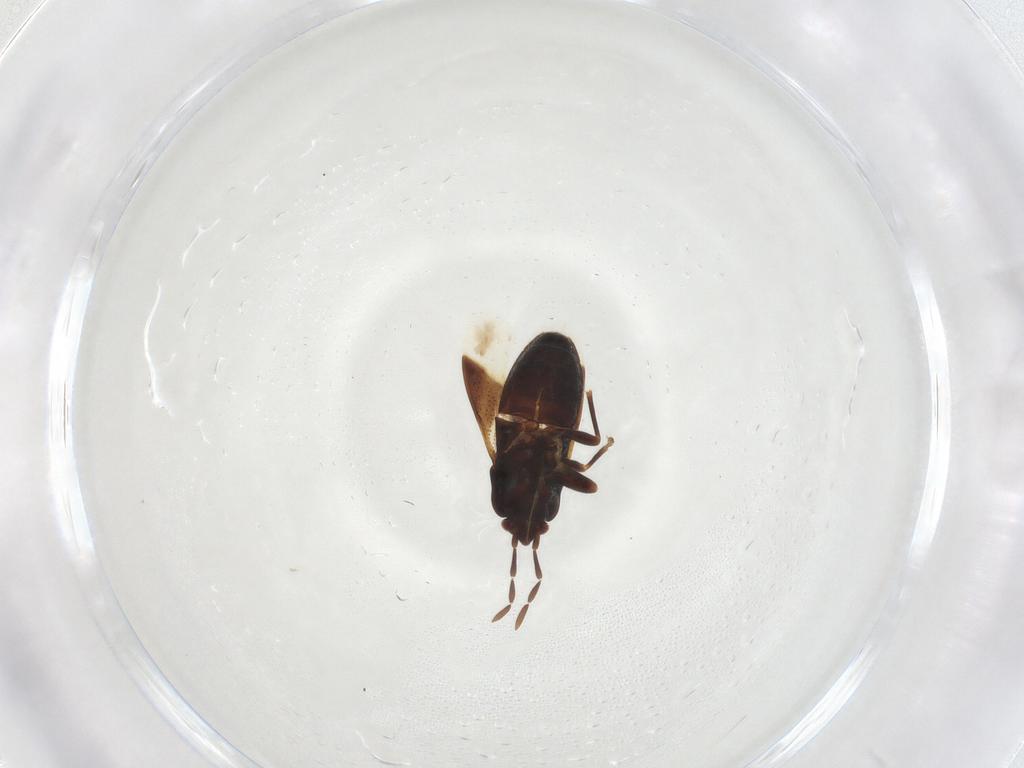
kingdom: Animalia
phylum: Arthropoda
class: Insecta
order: Hemiptera
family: Rhyparochromidae
